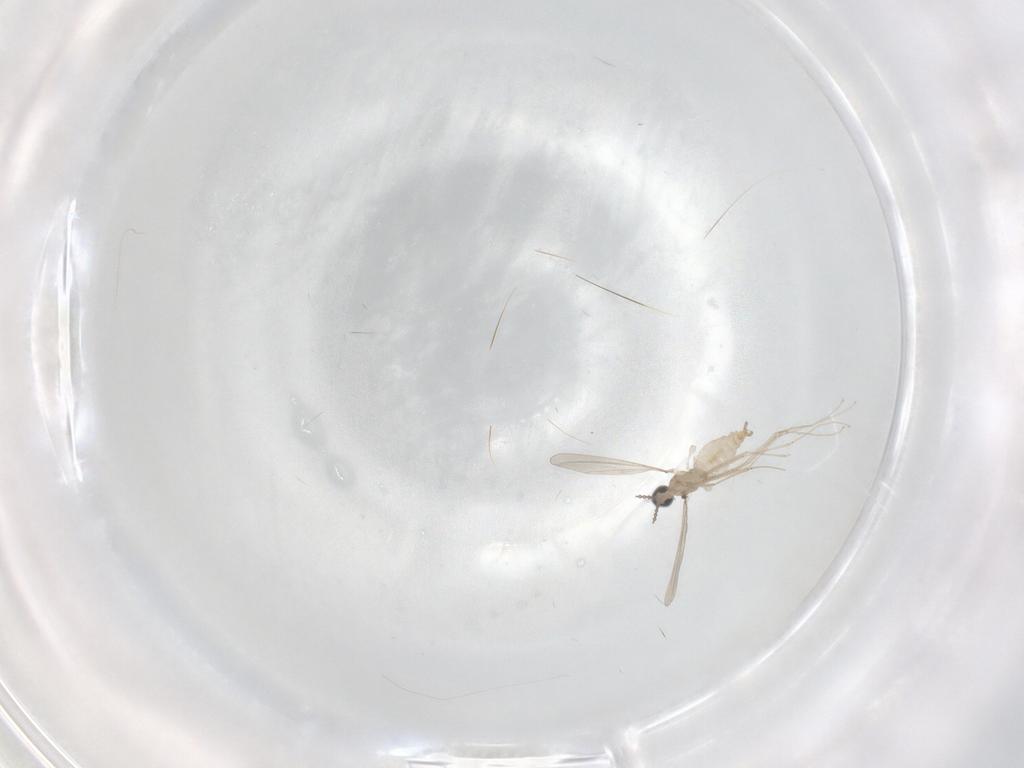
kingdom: Animalia
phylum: Arthropoda
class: Insecta
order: Diptera
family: Cecidomyiidae
